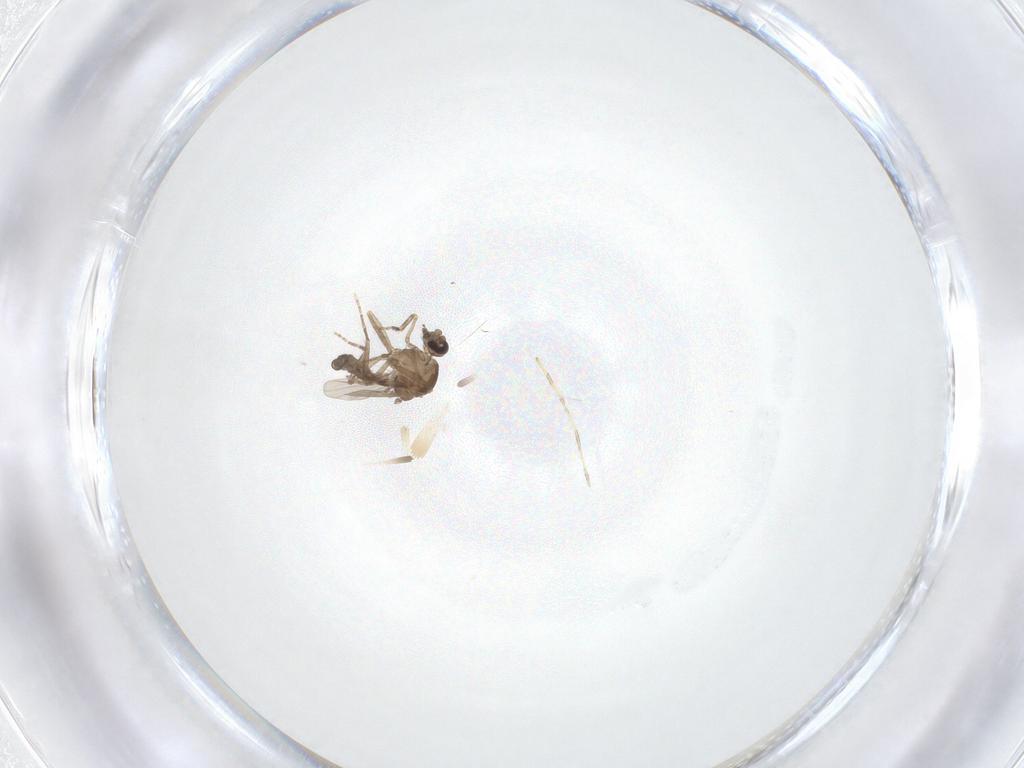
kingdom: Animalia
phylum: Arthropoda
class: Insecta
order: Diptera
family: Ceratopogonidae
